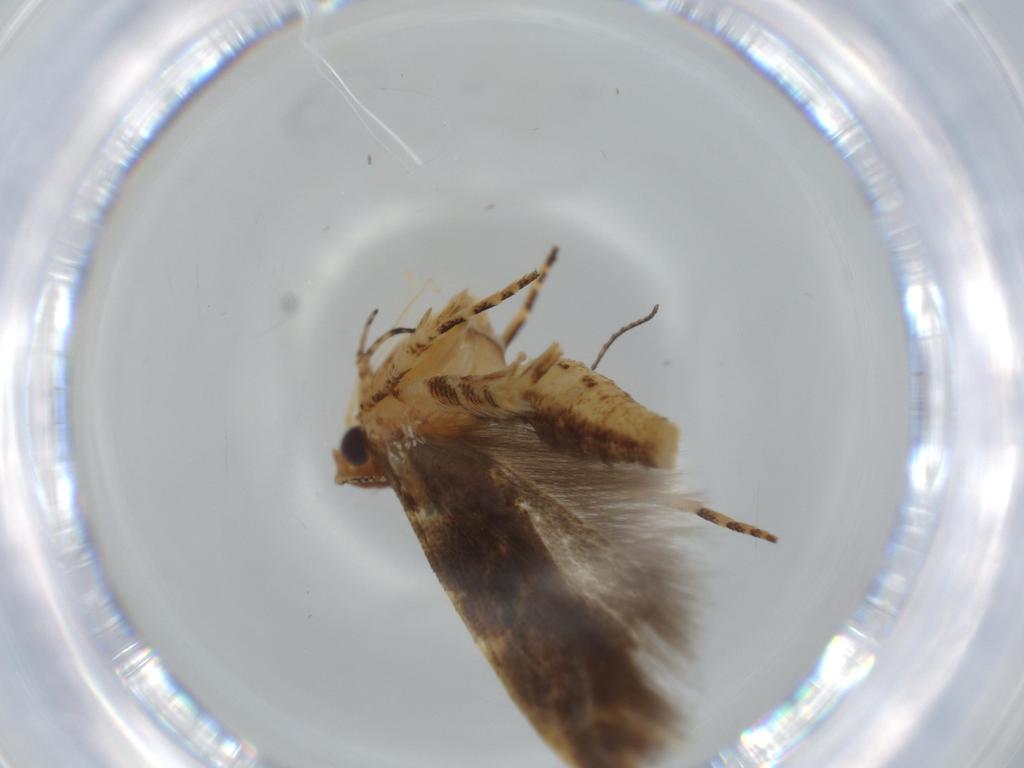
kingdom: Animalia
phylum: Arthropoda
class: Insecta
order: Lepidoptera
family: Tineidae
